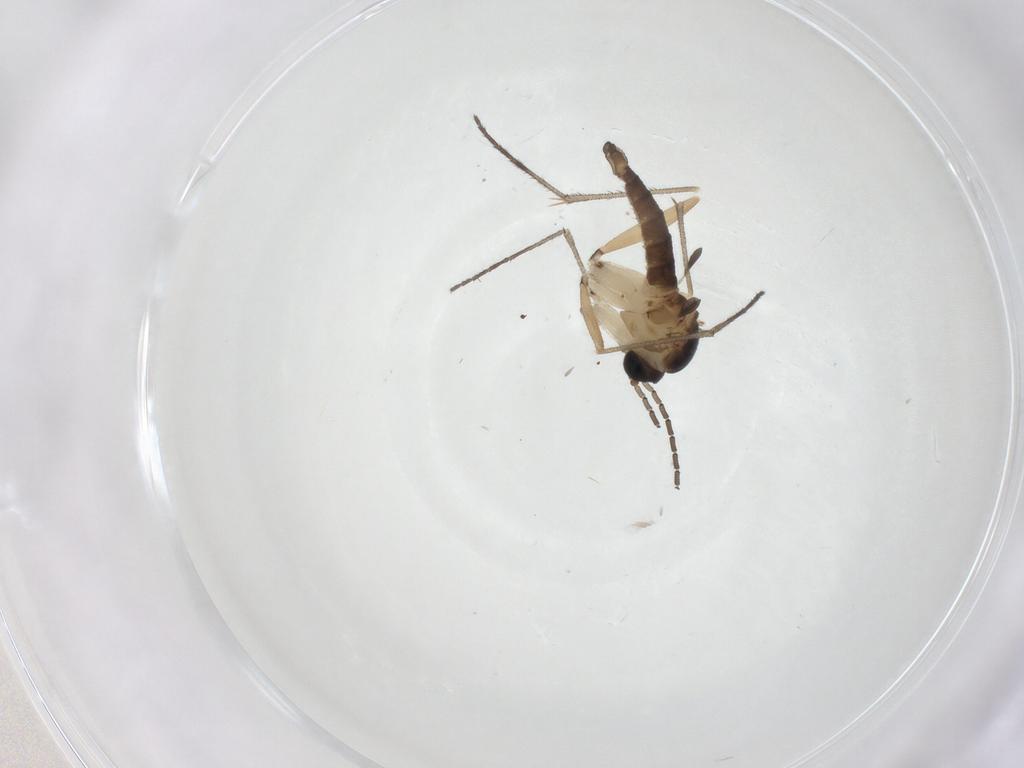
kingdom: Animalia
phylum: Arthropoda
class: Insecta
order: Diptera
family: Sciaridae
